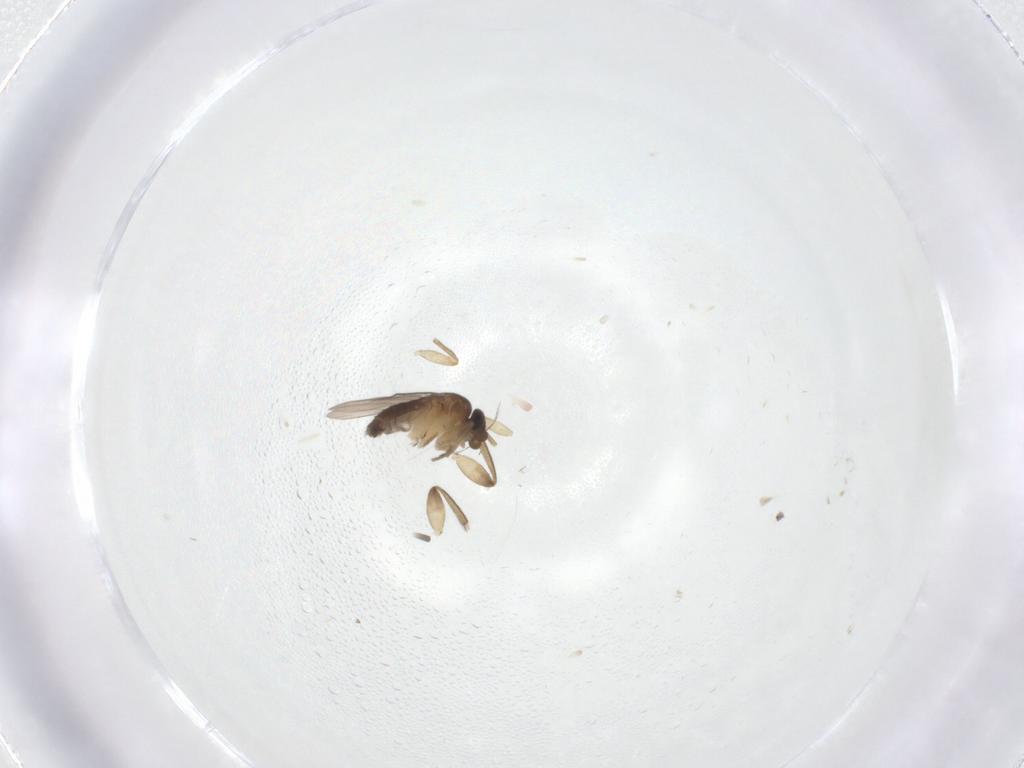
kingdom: Animalia
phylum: Arthropoda
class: Insecta
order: Diptera
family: Phoridae
